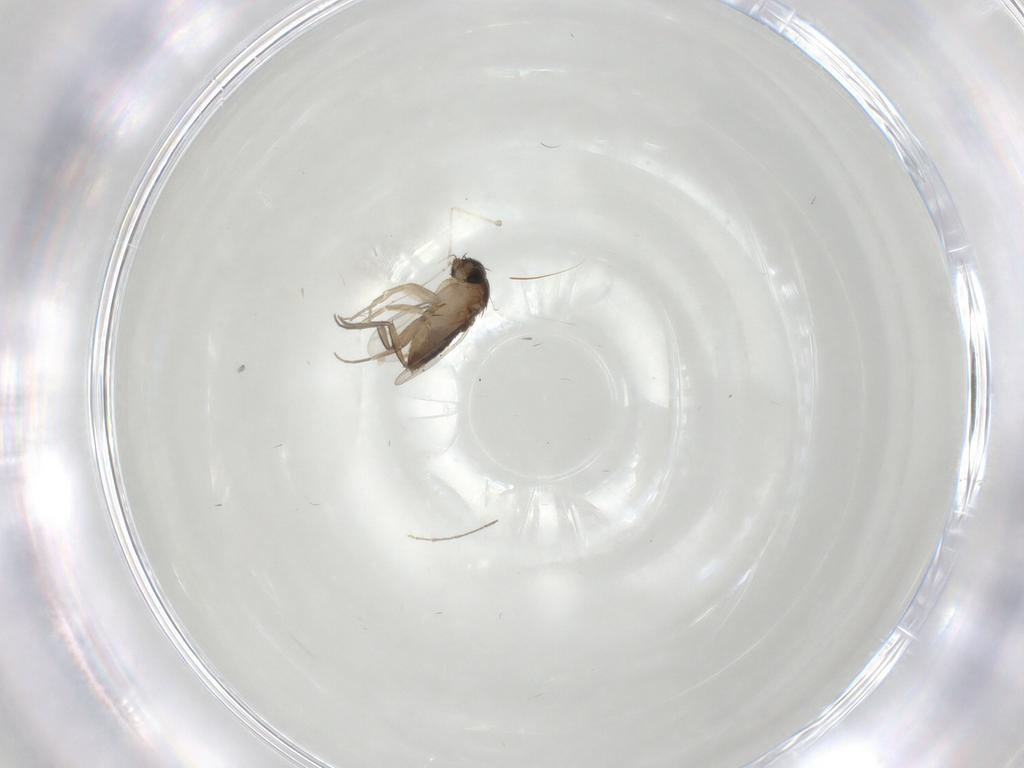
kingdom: Animalia
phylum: Arthropoda
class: Insecta
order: Diptera
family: Phoridae
